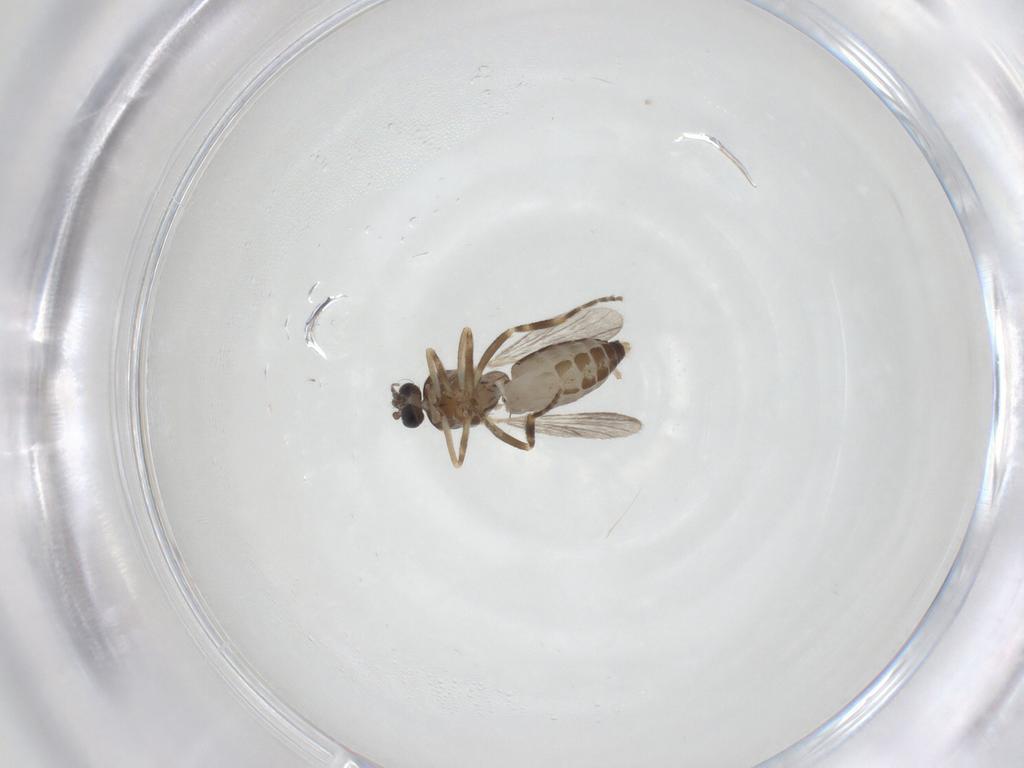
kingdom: Animalia
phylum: Arthropoda
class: Insecta
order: Diptera
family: Ceratopogonidae
